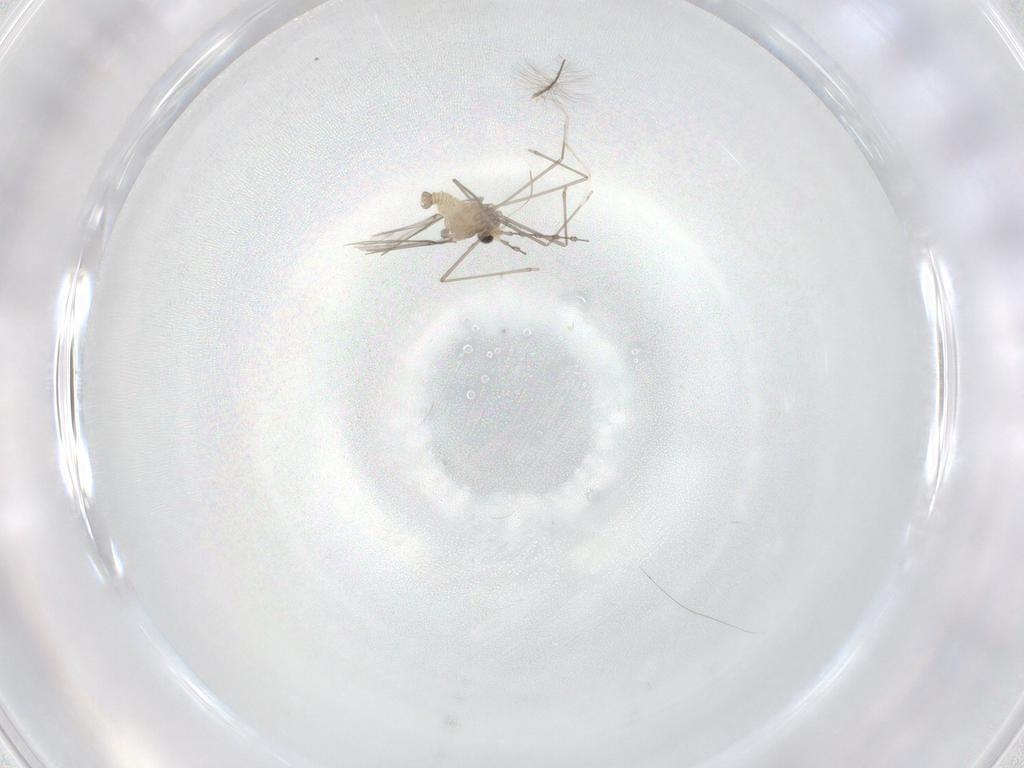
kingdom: Animalia
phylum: Arthropoda
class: Insecta
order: Diptera
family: Cecidomyiidae
